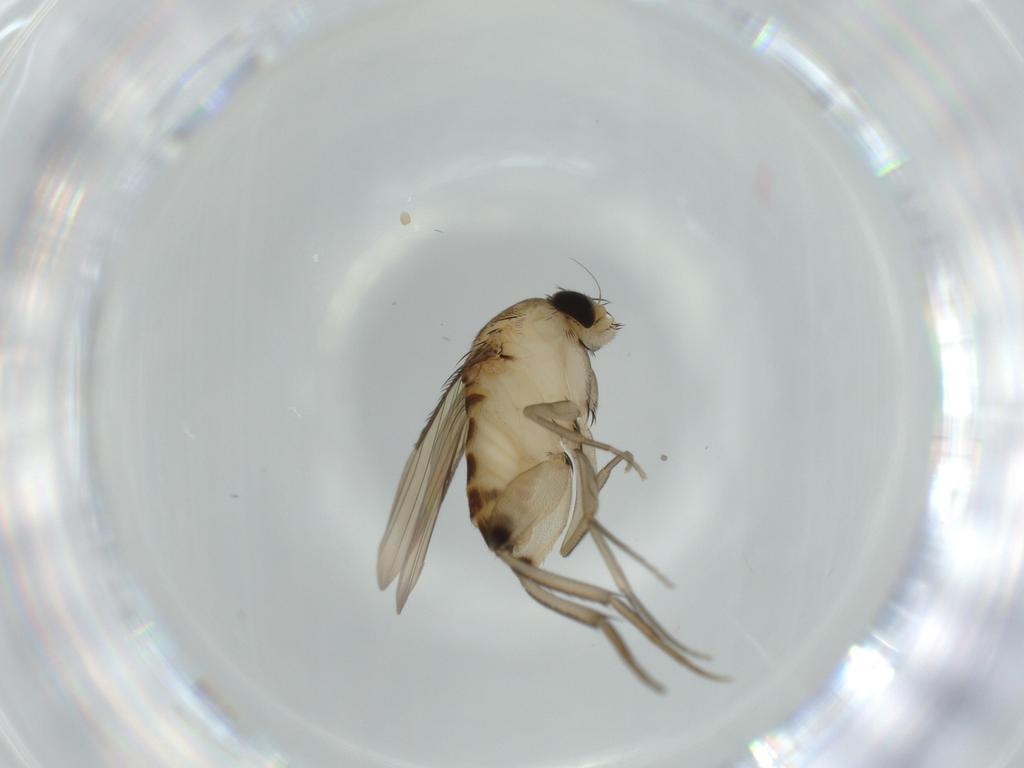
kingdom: Animalia
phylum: Arthropoda
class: Insecta
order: Diptera
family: Phoridae
